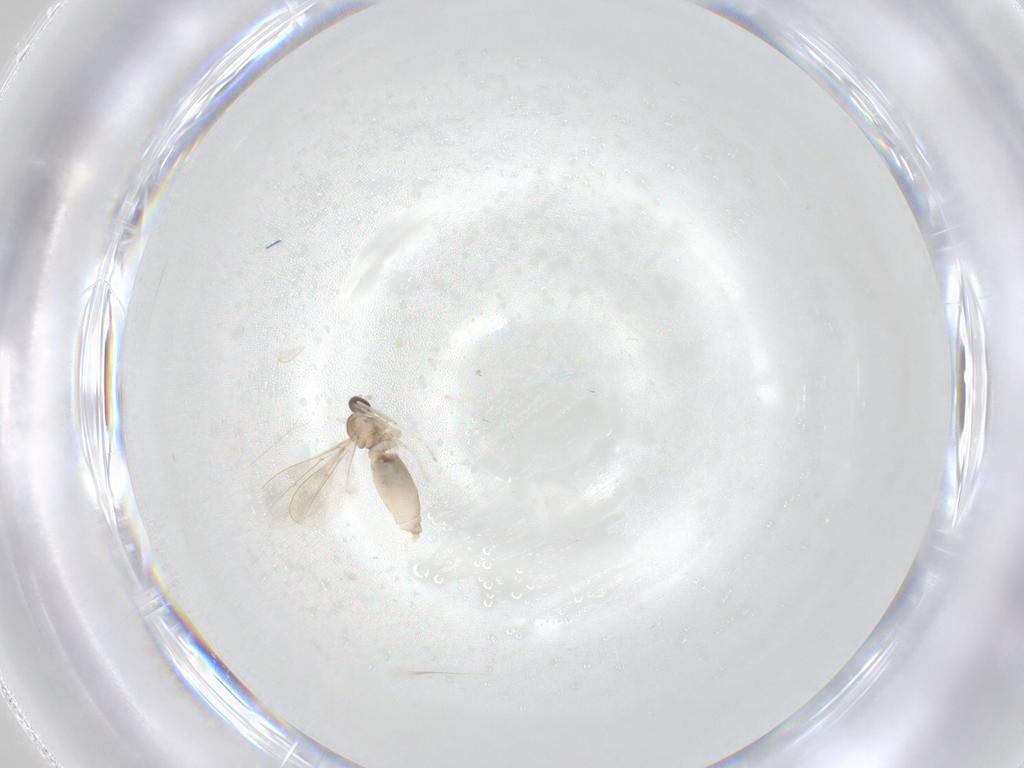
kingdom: Animalia
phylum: Arthropoda
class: Insecta
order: Diptera
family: Cecidomyiidae
